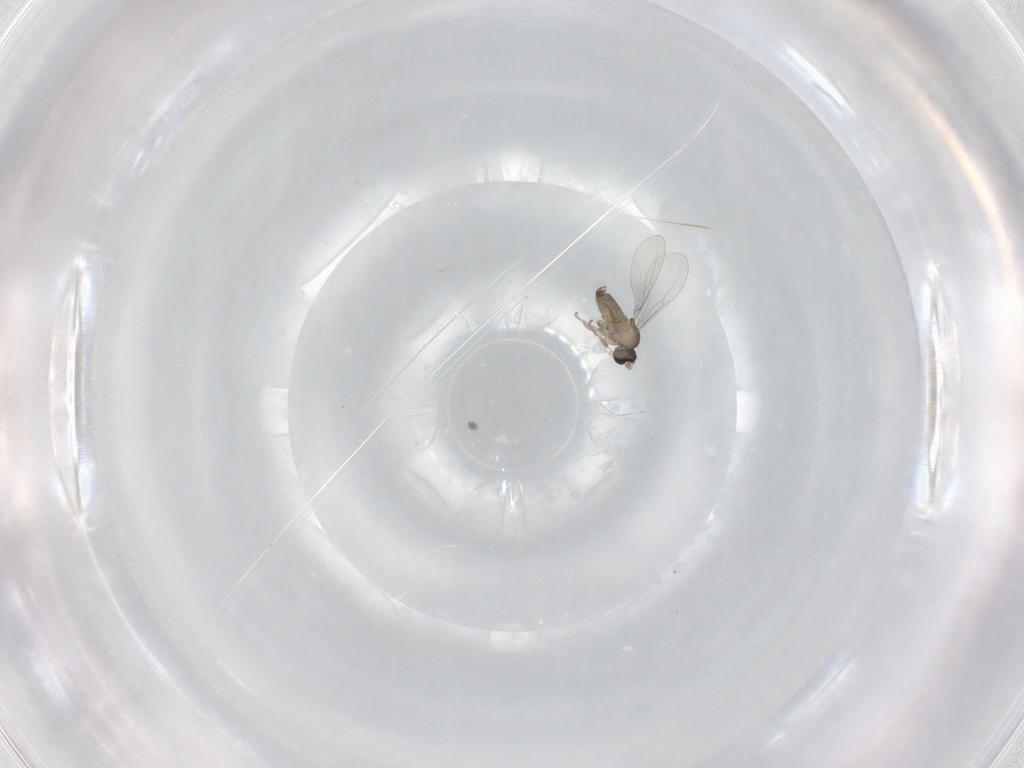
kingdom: Animalia
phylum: Arthropoda
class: Insecta
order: Diptera
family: Cecidomyiidae
